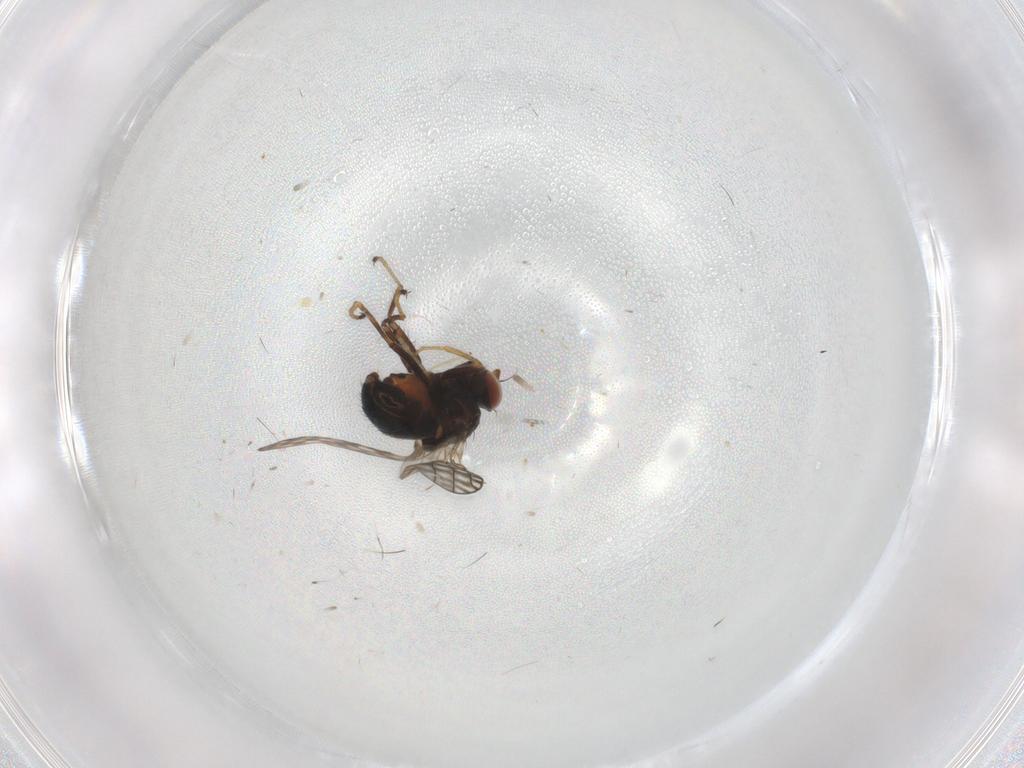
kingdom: Animalia
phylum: Arthropoda
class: Insecta
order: Diptera
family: Ephydridae
